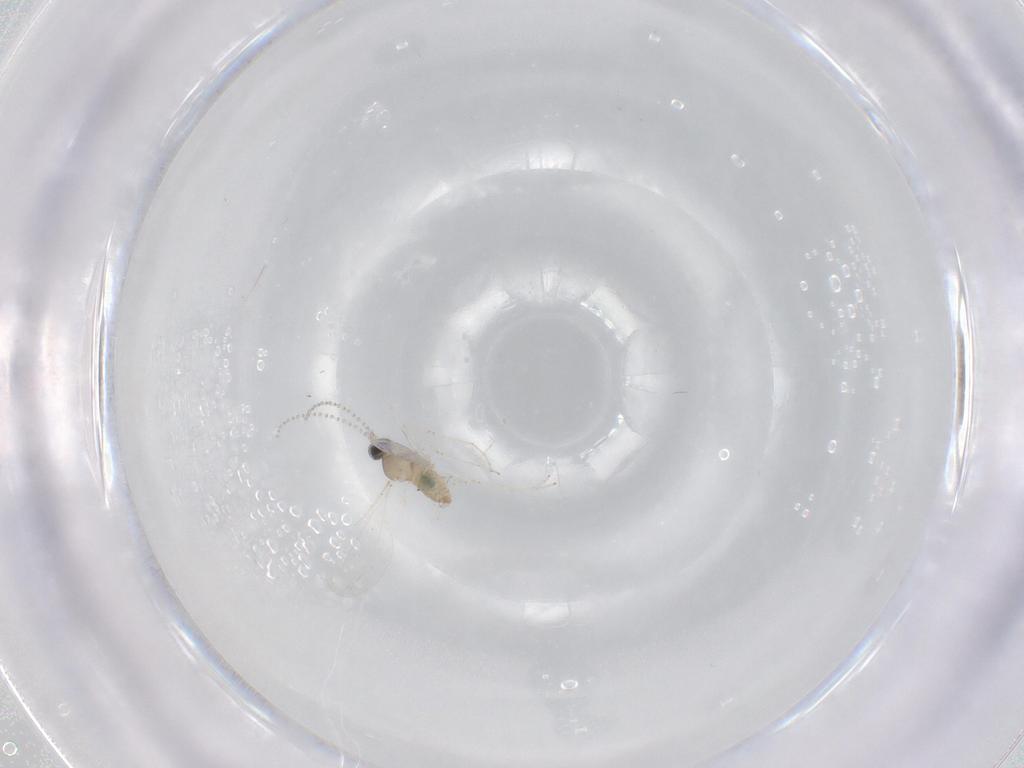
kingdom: Animalia
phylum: Arthropoda
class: Insecta
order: Diptera
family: Cecidomyiidae
